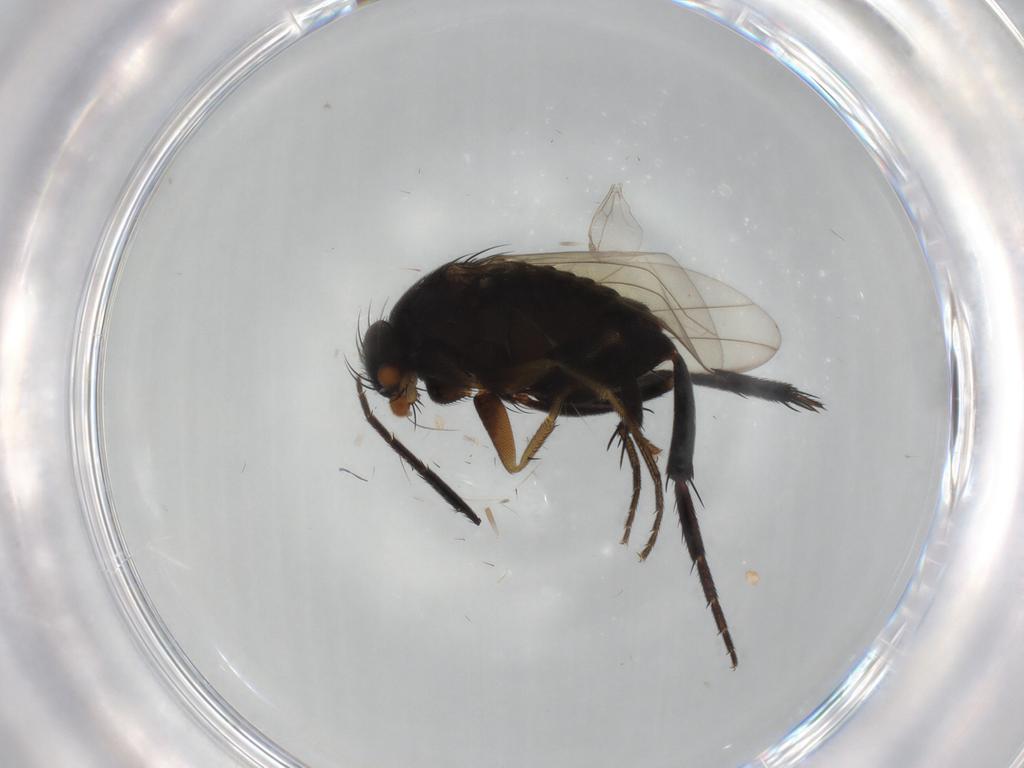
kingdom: Animalia
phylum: Arthropoda
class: Insecta
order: Diptera
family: Phoridae
